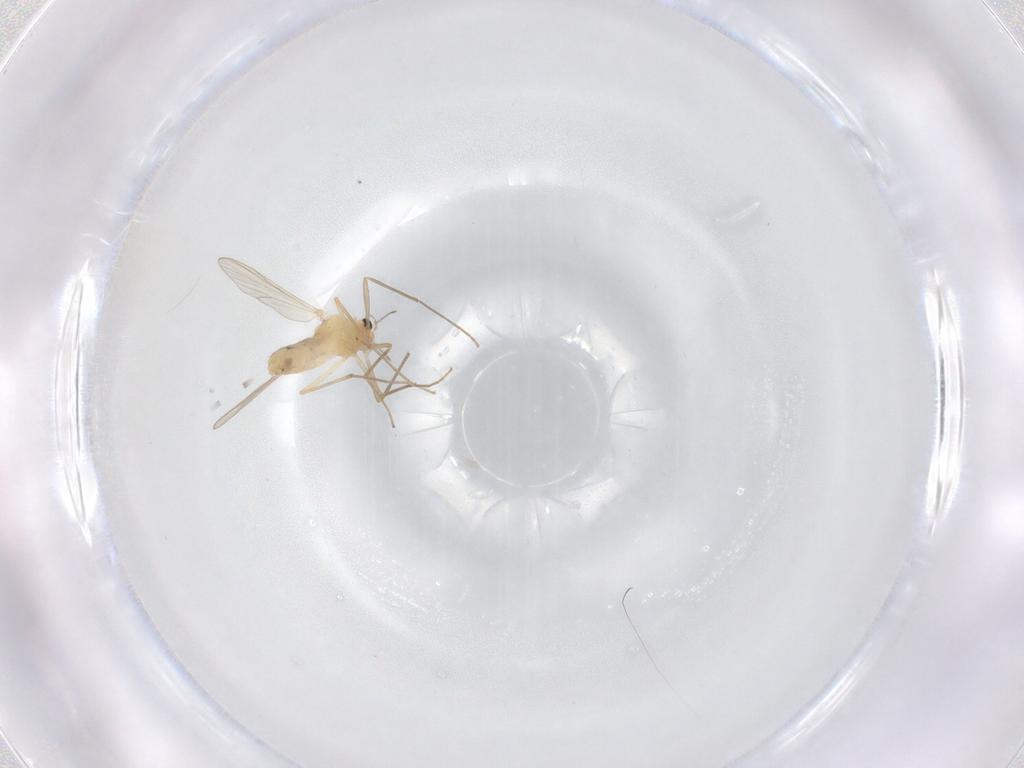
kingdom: Animalia
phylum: Arthropoda
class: Insecta
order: Diptera
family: Chironomidae
